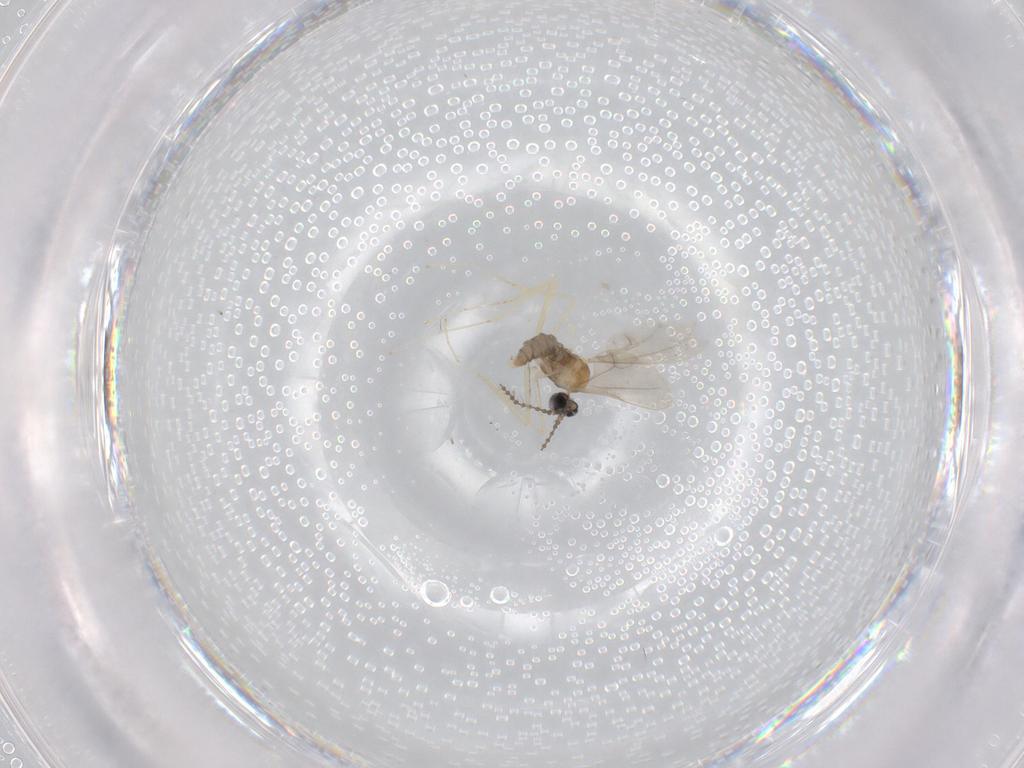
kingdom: Animalia
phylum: Arthropoda
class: Insecta
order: Diptera
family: Cecidomyiidae
